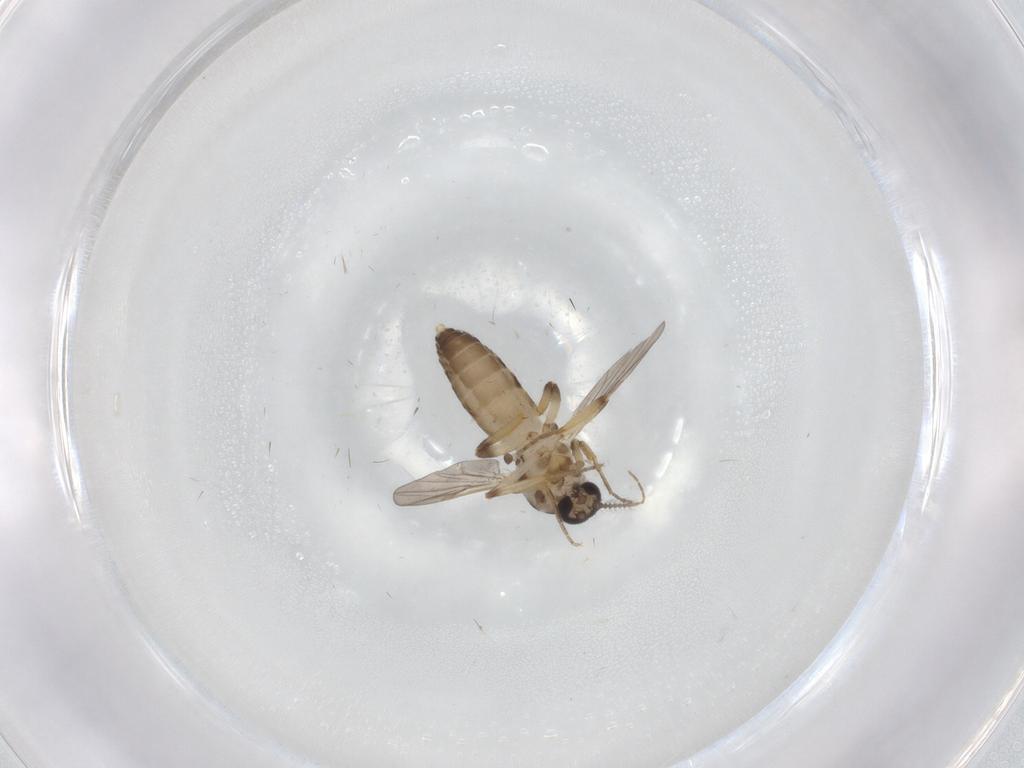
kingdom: Animalia
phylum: Arthropoda
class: Insecta
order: Diptera
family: Ceratopogonidae
